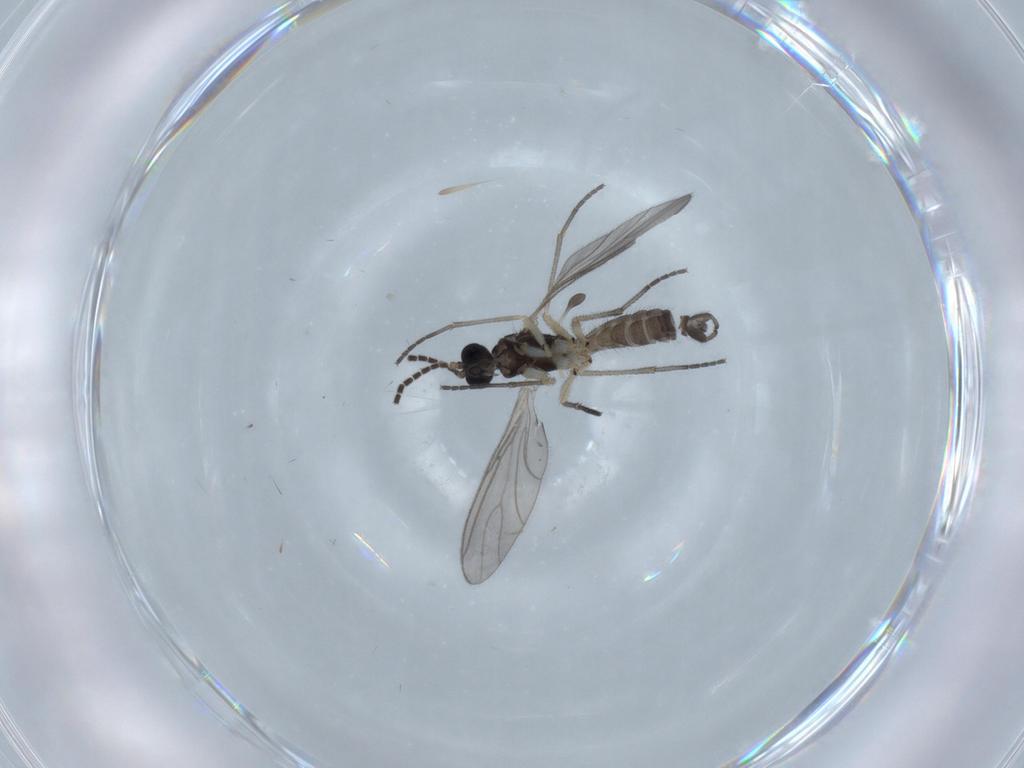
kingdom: Animalia
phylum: Arthropoda
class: Insecta
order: Diptera
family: Sciaridae
